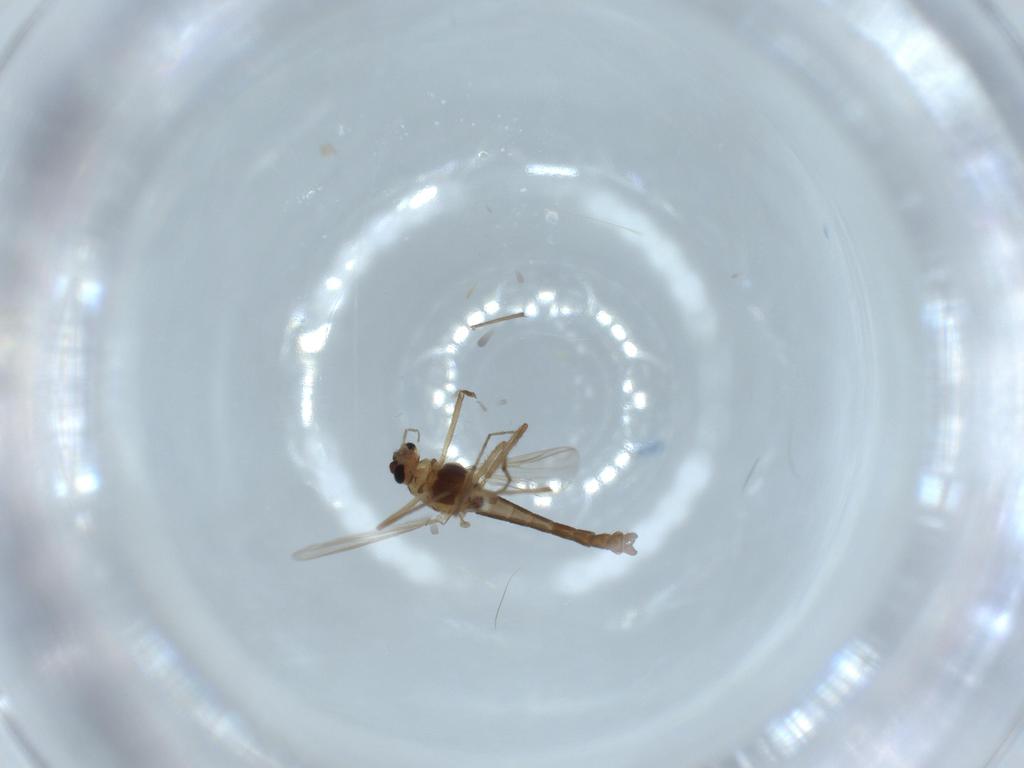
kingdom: Animalia
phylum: Arthropoda
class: Insecta
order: Diptera
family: Chironomidae
